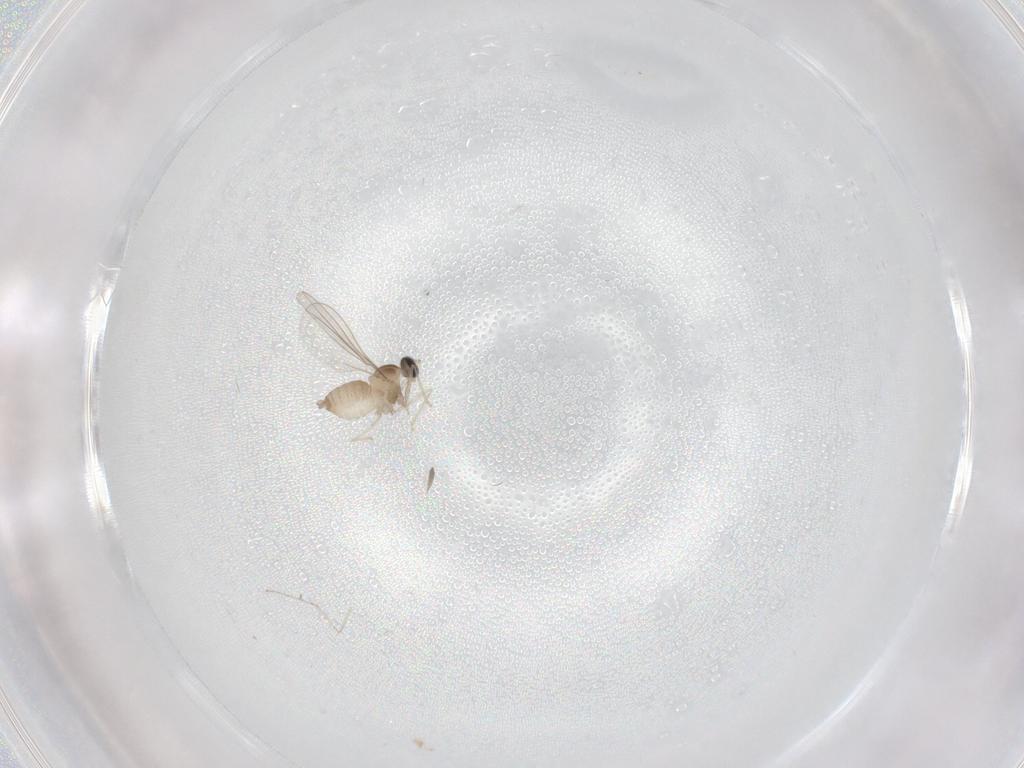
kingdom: Animalia
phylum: Arthropoda
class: Insecta
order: Diptera
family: Cecidomyiidae
